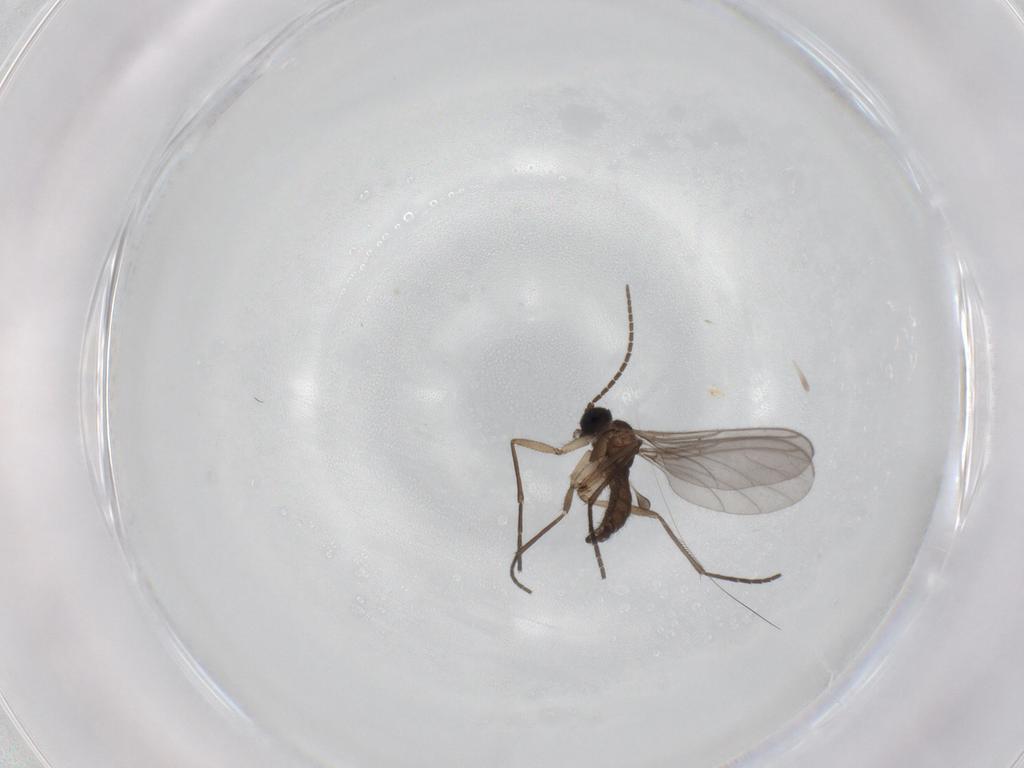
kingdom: Animalia
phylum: Arthropoda
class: Insecta
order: Diptera
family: Sciaridae
